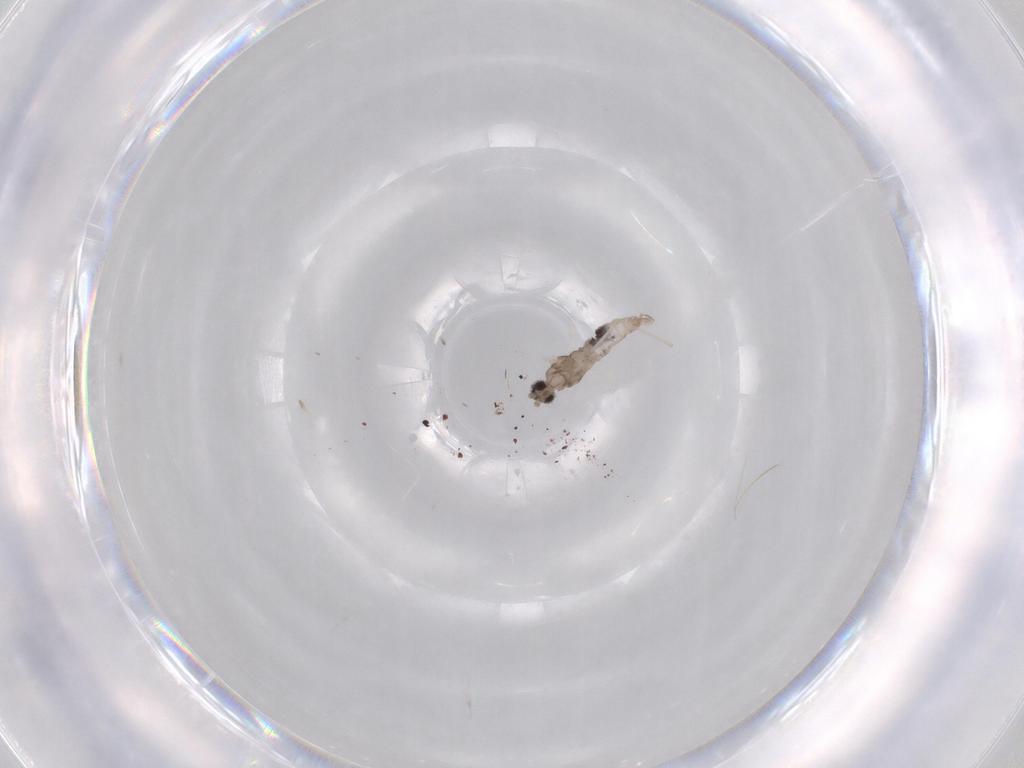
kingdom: Animalia
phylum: Arthropoda
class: Insecta
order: Diptera
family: Cecidomyiidae
